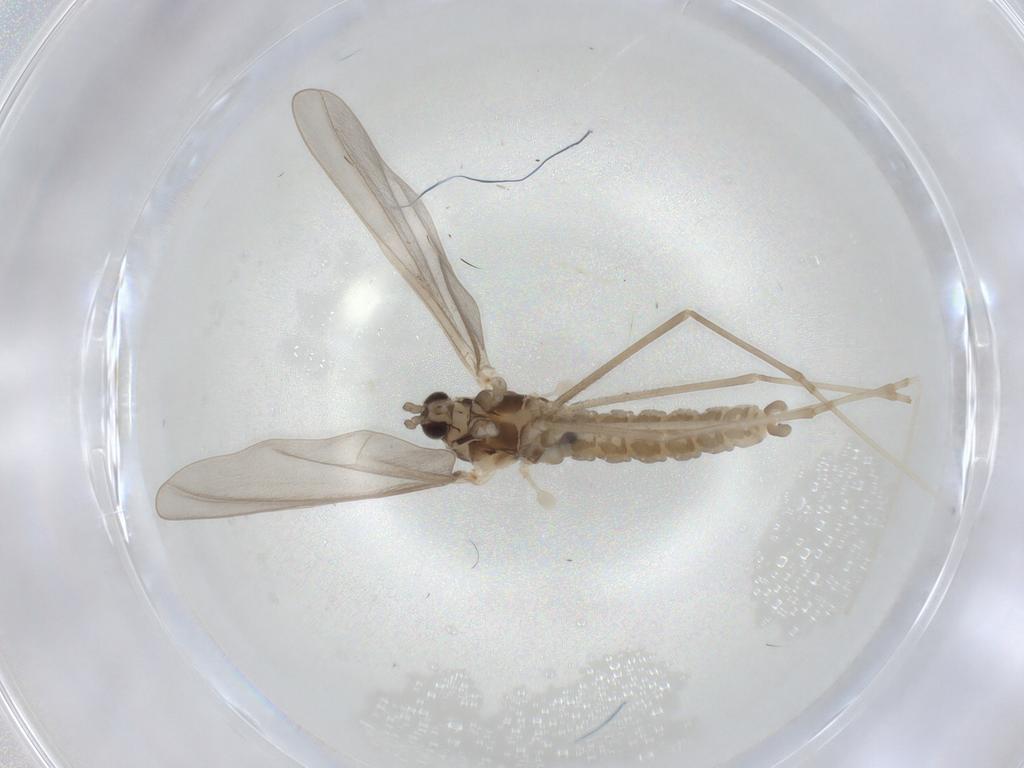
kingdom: Animalia
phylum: Arthropoda
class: Insecta
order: Diptera
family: Cecidomyiidae
